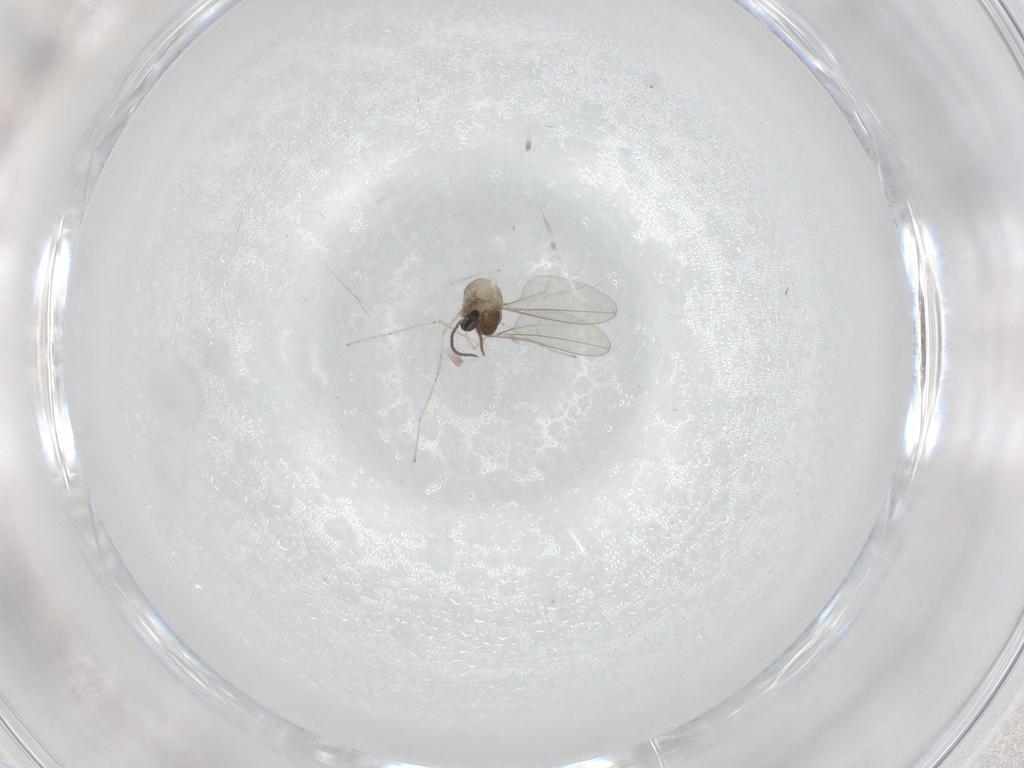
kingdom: Animalia
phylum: Arthropoda
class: Insecta
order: Diptera
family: Cecidomyiidae
